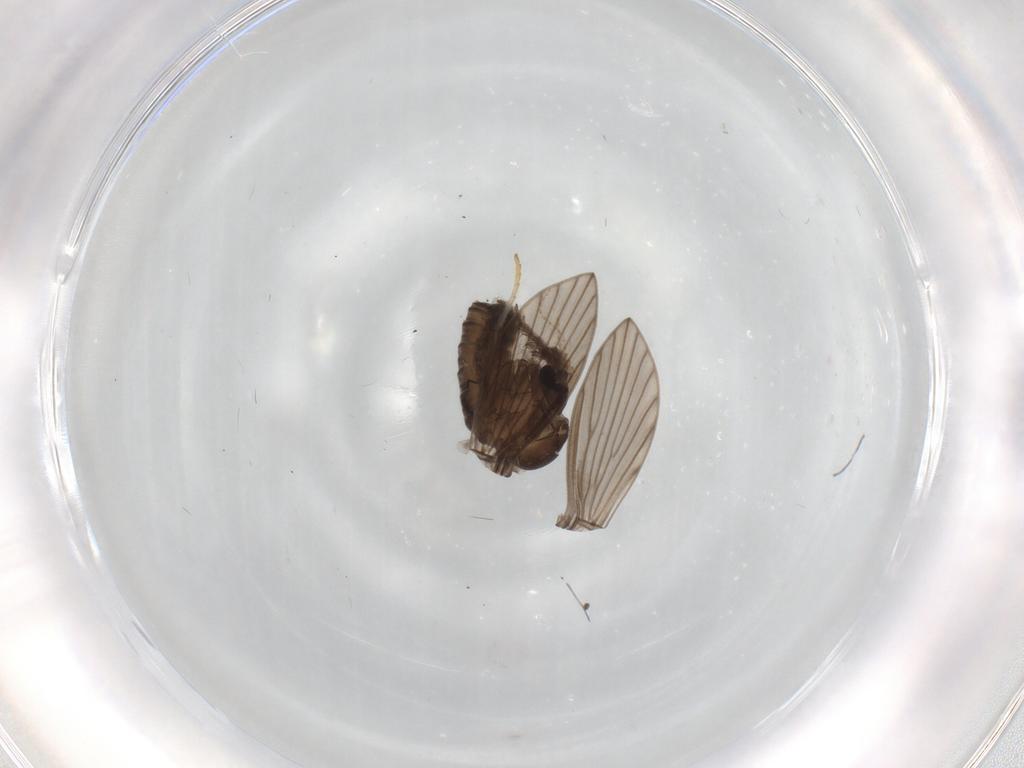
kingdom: Animalia
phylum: Arthropoda
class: Insecta
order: Diptera
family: Psychodidae
